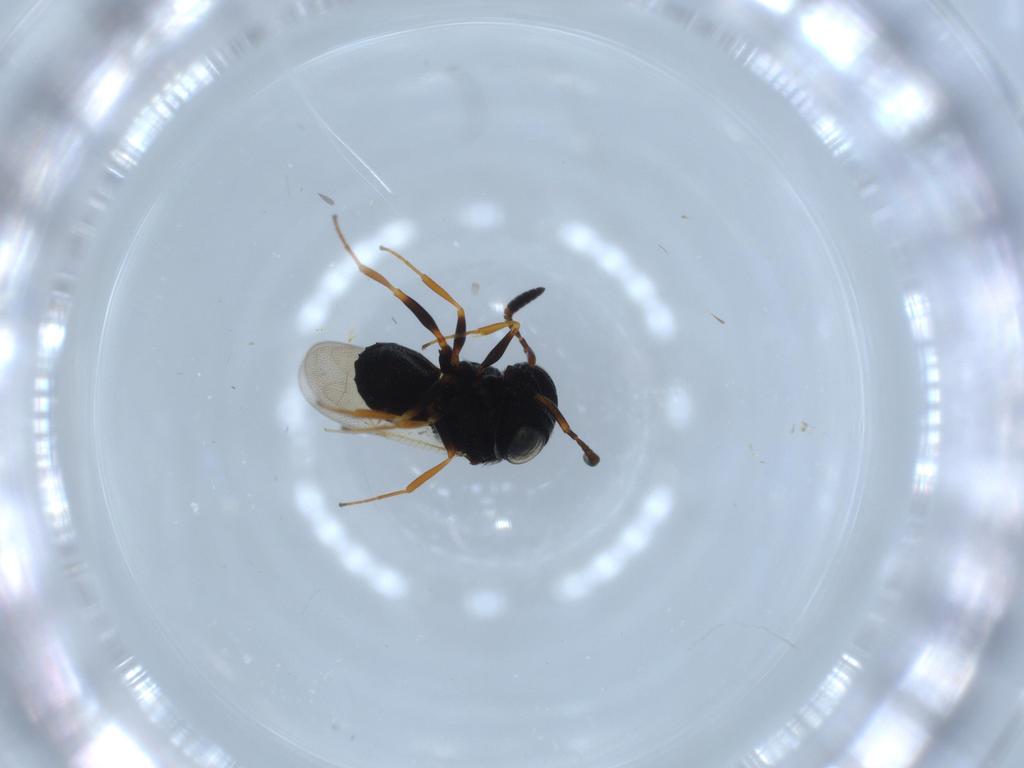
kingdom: Animalia
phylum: Arthropoda
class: Insecta
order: Hymenoptera
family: Scelionidae
